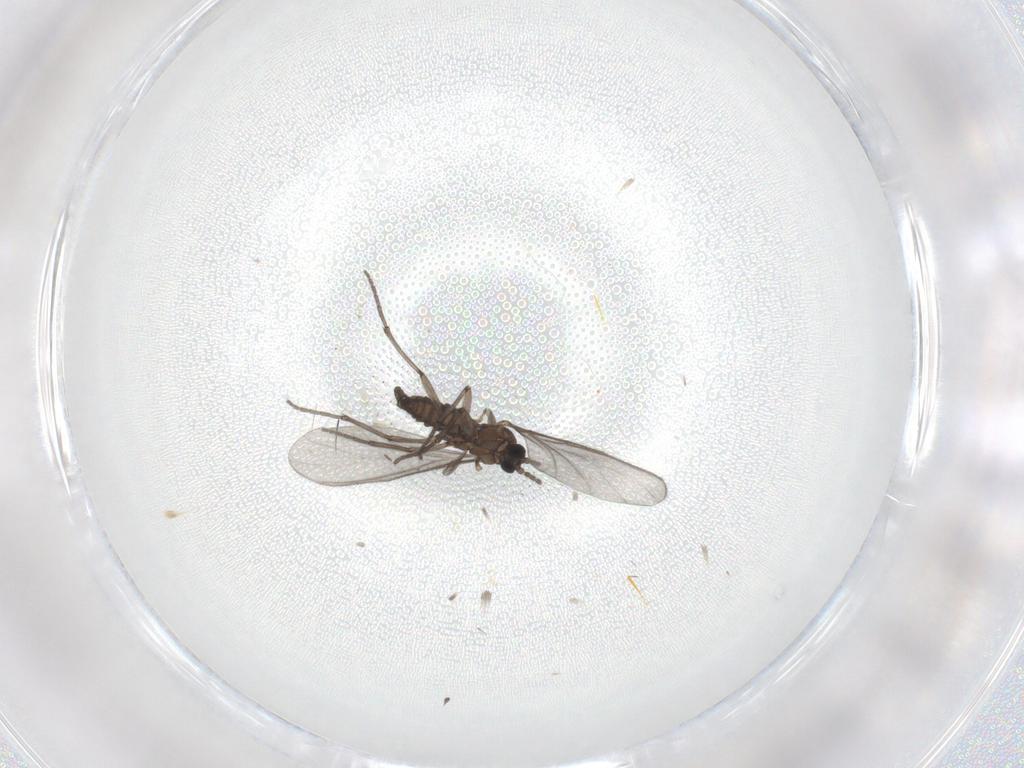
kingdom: Animalia
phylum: Arthropoda
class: Insecta
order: Diptera
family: Sciaridae
